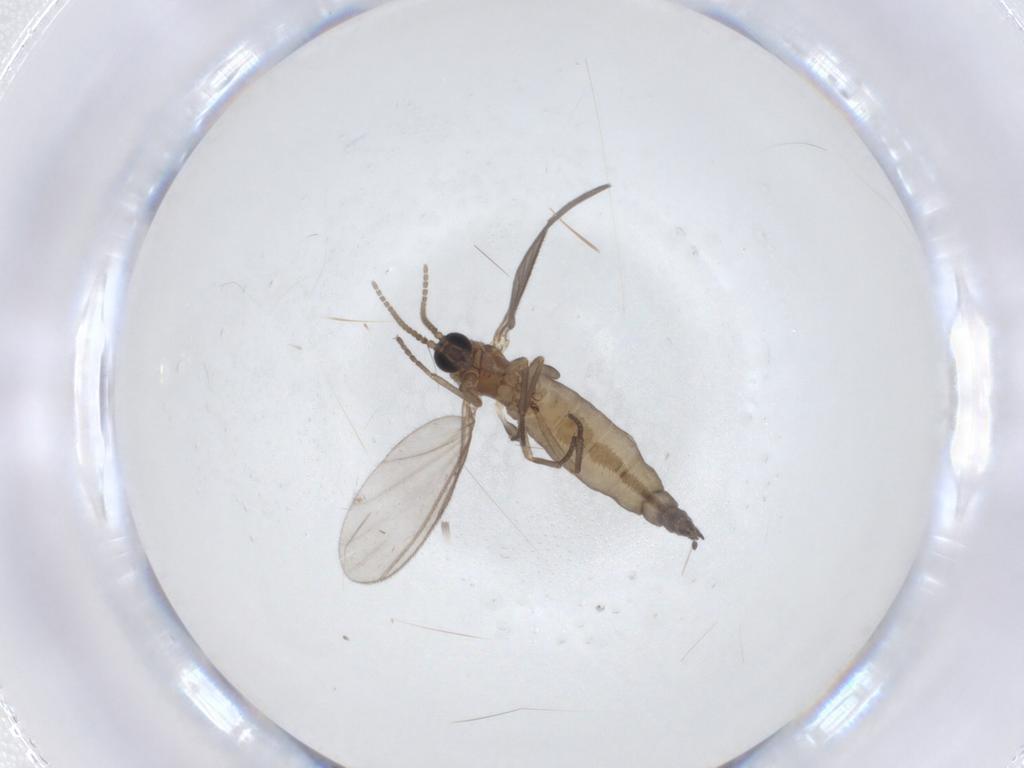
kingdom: Animalia
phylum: Arthropoda
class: Insecta
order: Diptera
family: Sciaridae
